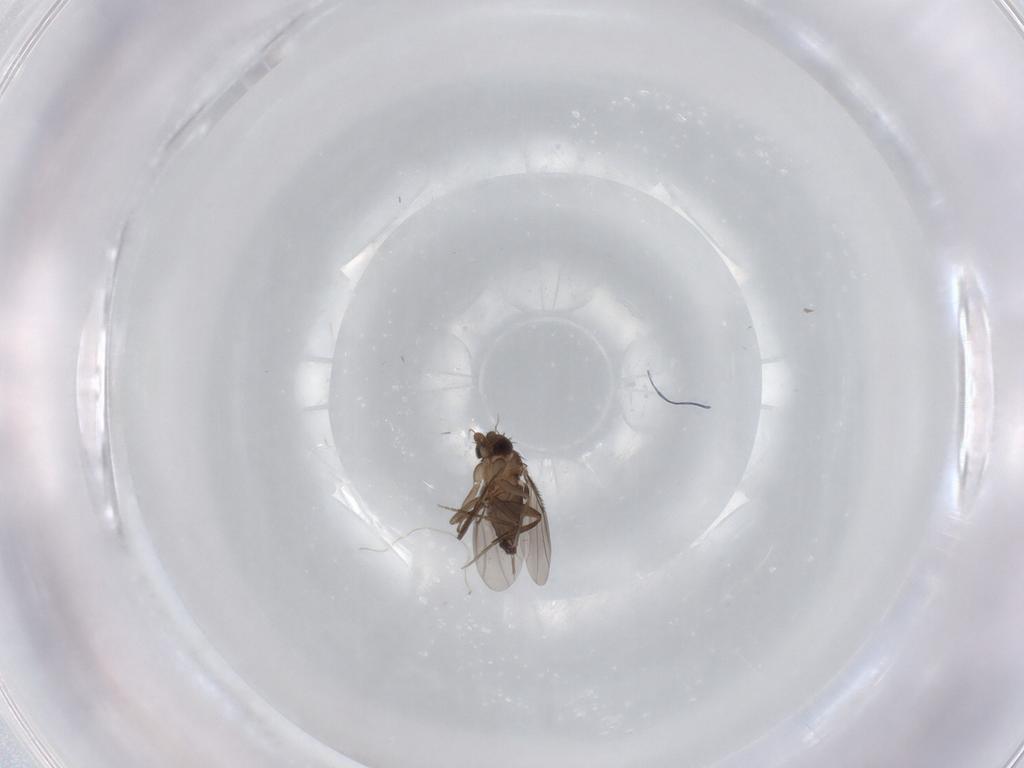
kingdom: Animalia
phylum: Arthropoda
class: Insecta
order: Diptera
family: Phoridae
